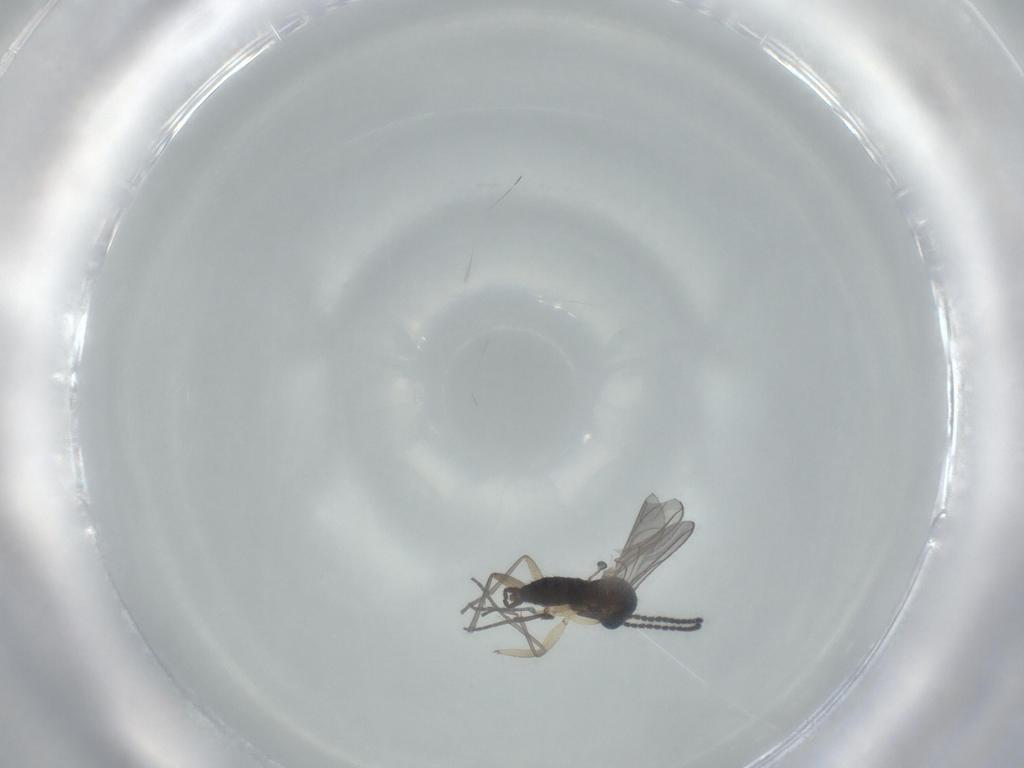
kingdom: Animalia
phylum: Arthropoda
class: Insecta
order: Diptera
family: Sciaridae
